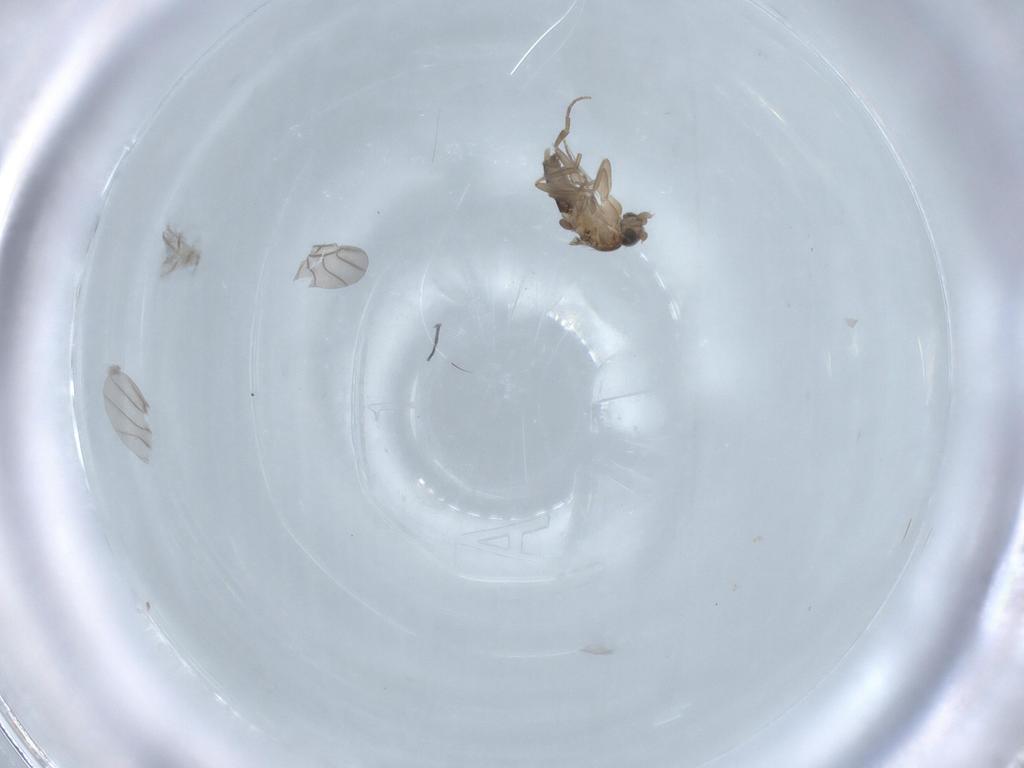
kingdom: Animalia
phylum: Arthropoda
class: Insecta
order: Diptera
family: Phoridae
